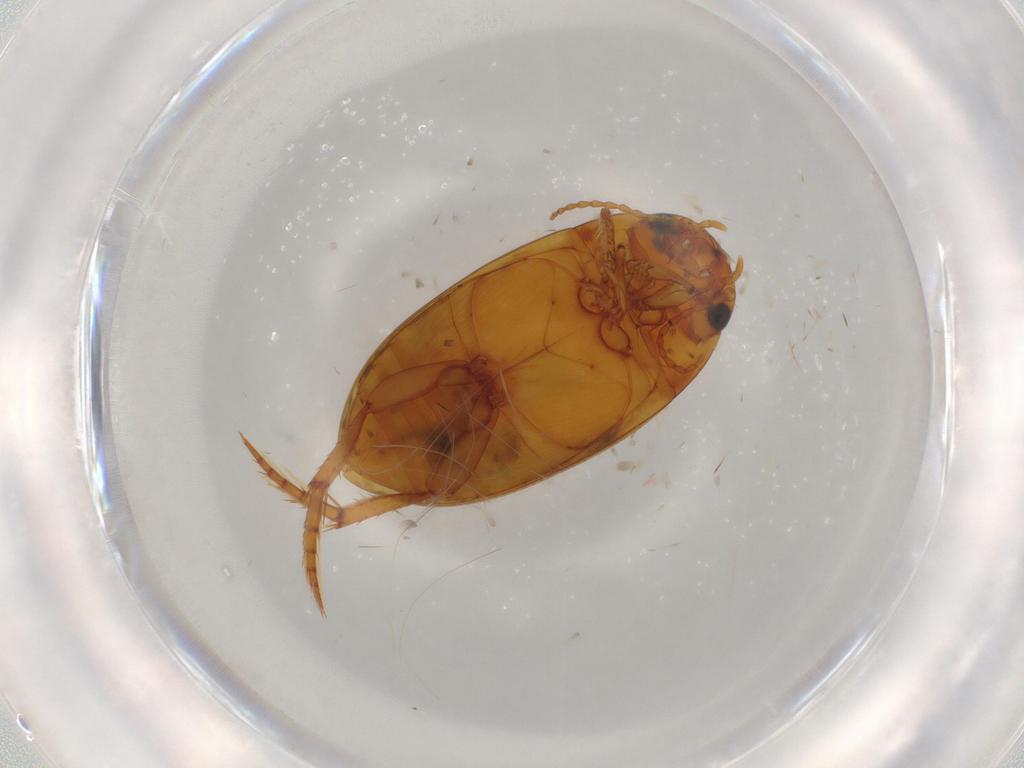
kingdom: Animalia
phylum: Arthropoda
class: Insecta
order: Coleoptera
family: Dytiscidae
